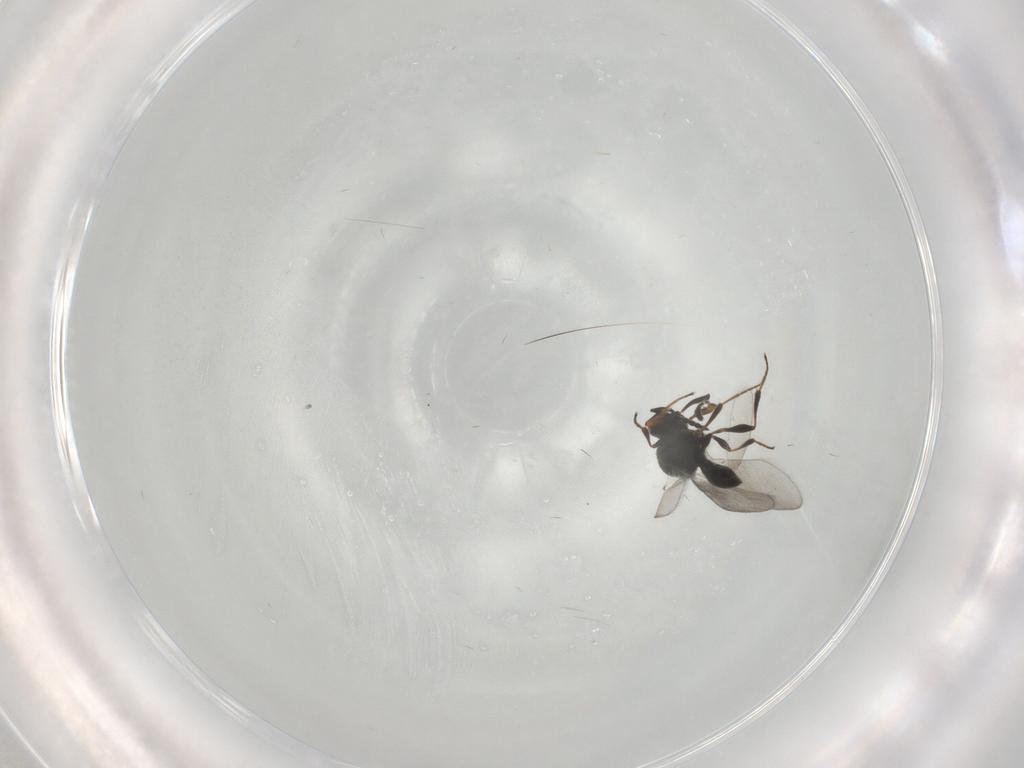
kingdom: Animalia
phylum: Arthropoda
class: Insecta
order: Hymenoptera
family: Platygastridae
